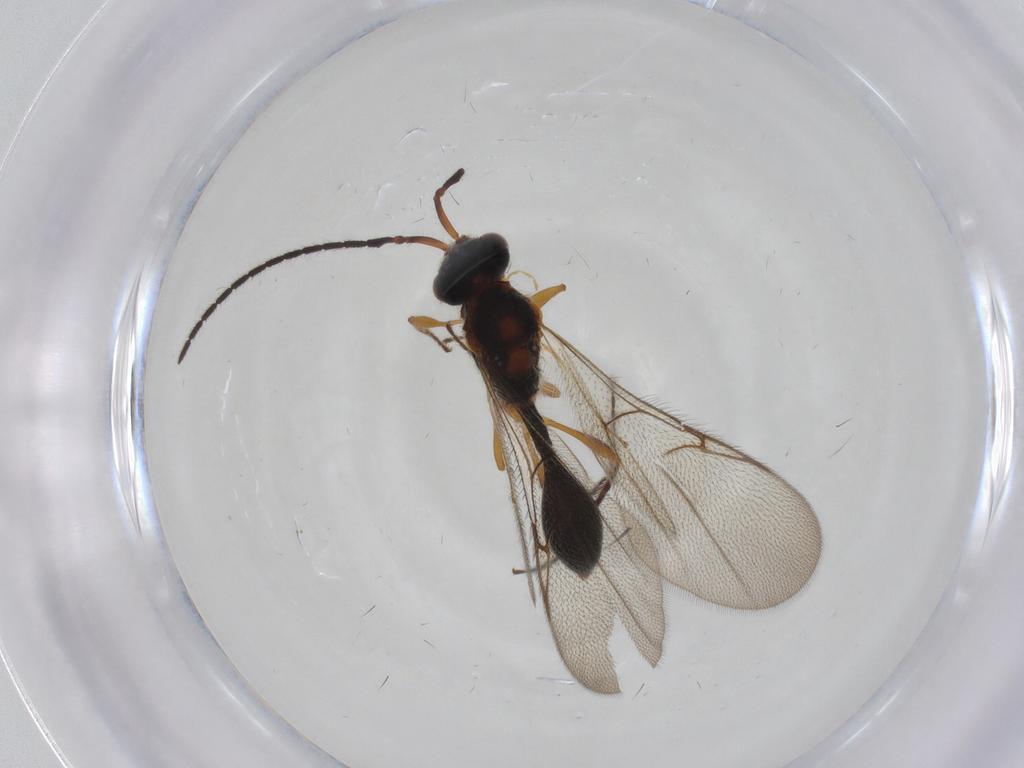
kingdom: Animalia
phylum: Arthropoda
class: Insecta
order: Hymenoptera
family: Diapriidae
